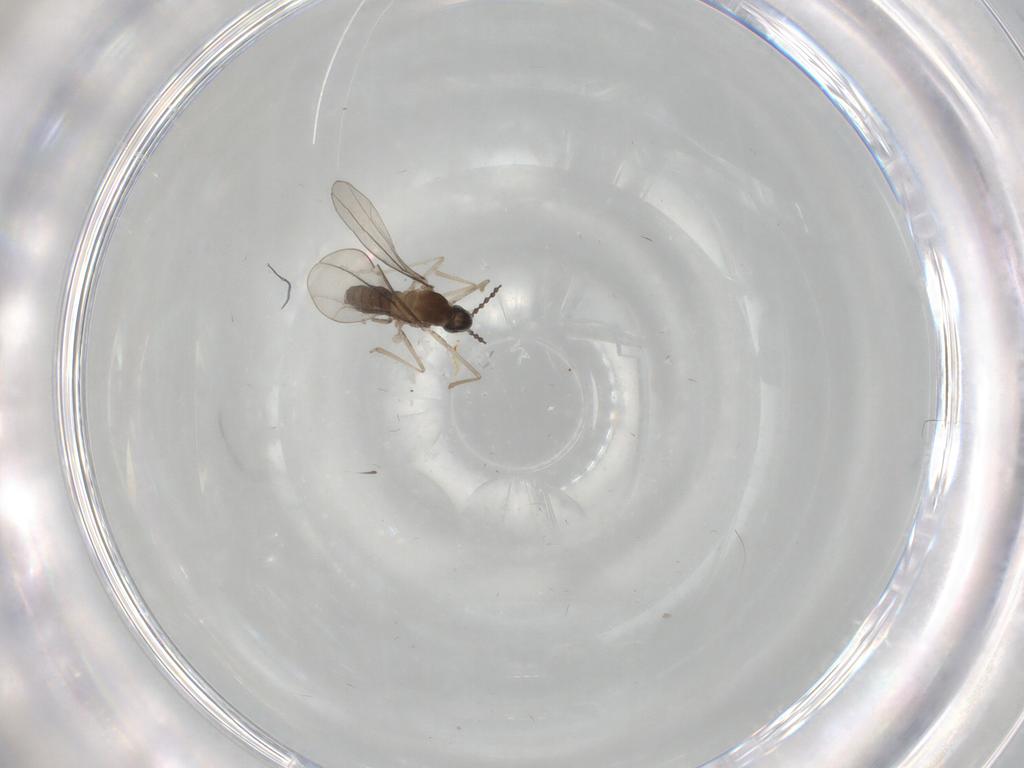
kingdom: Animalia
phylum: Arthropoda
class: Insecta
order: Diptera
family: Cecidomyiidae
